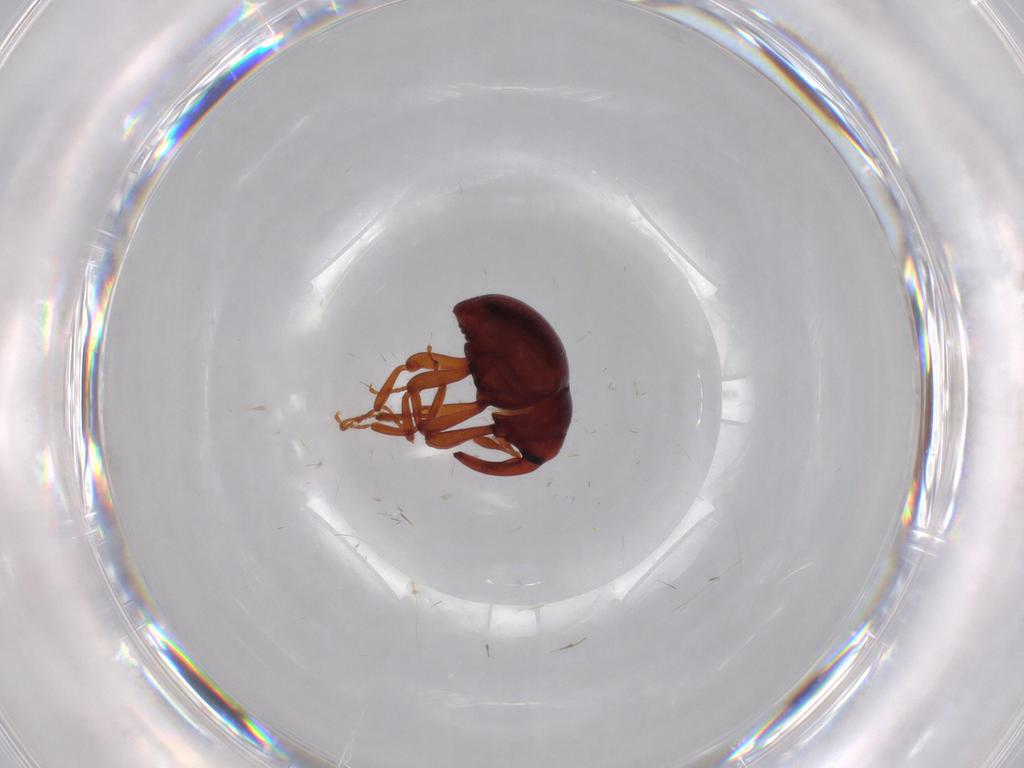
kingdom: Animalia
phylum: Arthropoda
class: Insecta
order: Coleoptera
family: Curculionidae
